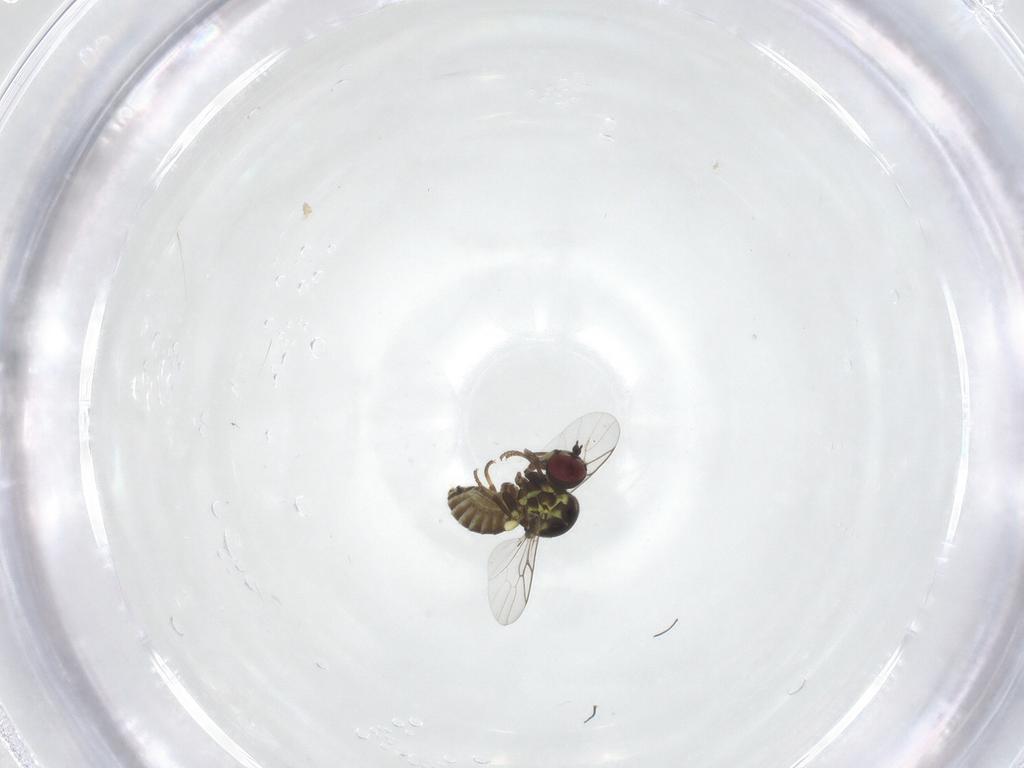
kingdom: Animalia
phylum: Arthropoda
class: Insecta
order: Diptera
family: Mythicomyiidae
